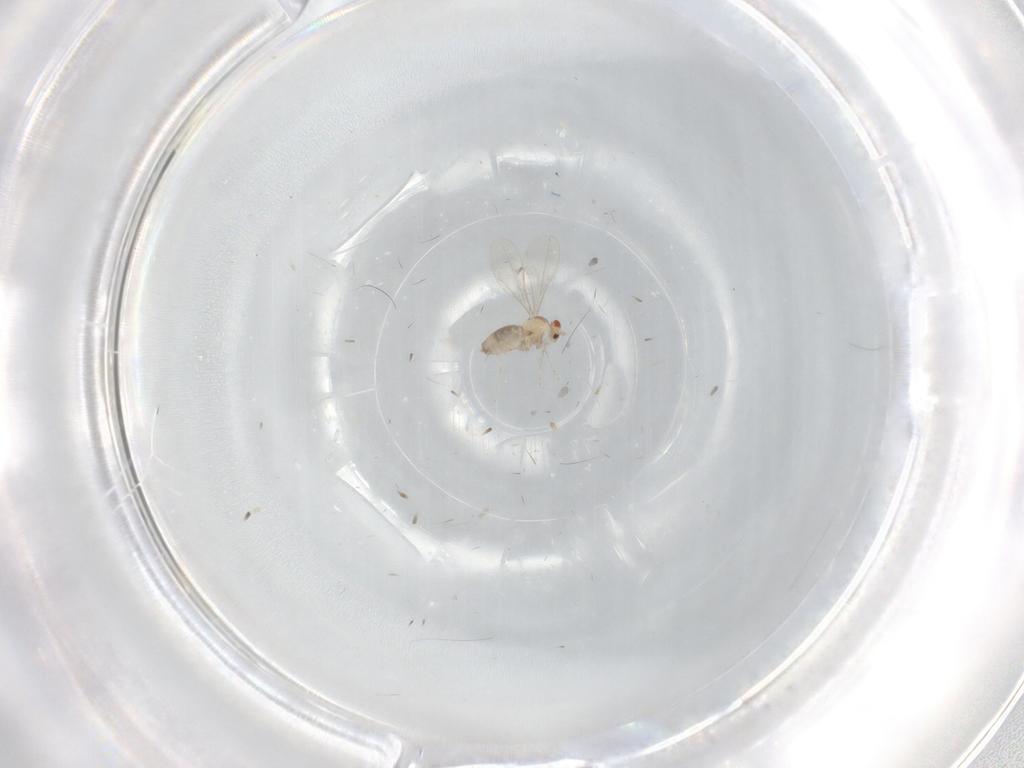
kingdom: Animalia
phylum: Arthropoda
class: Insecta
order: Diptera
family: Cecidomyiidae
